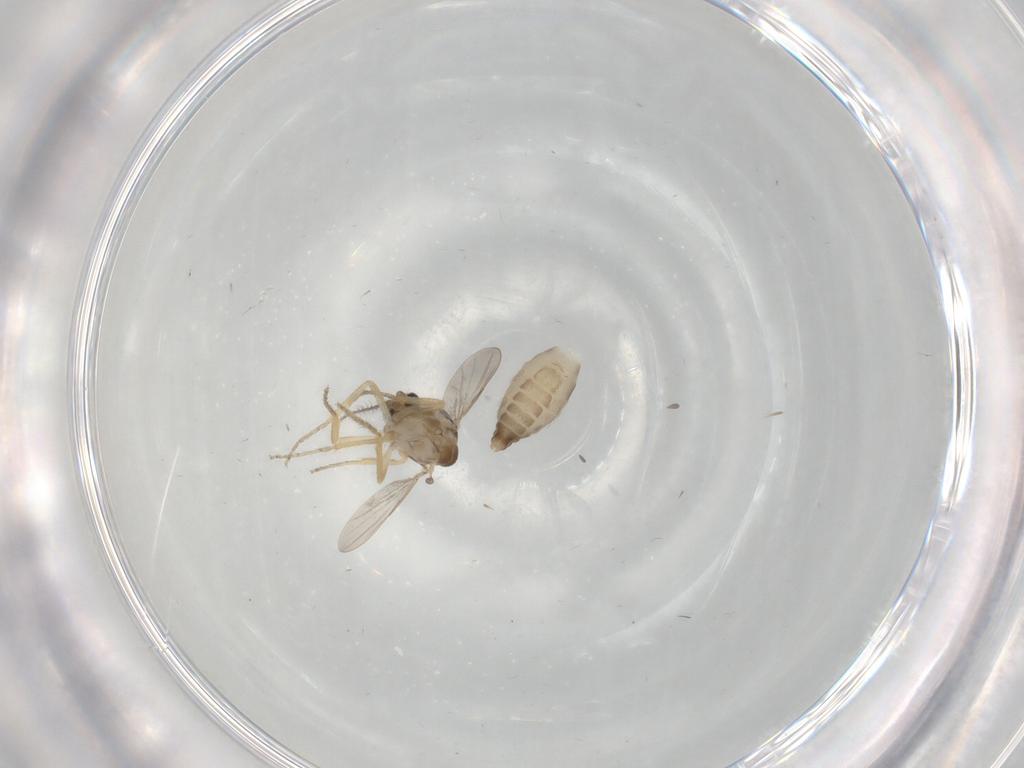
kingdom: Animalia
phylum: Arthropoda
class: Insecta
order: Diptera
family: Ceratopogonidae
